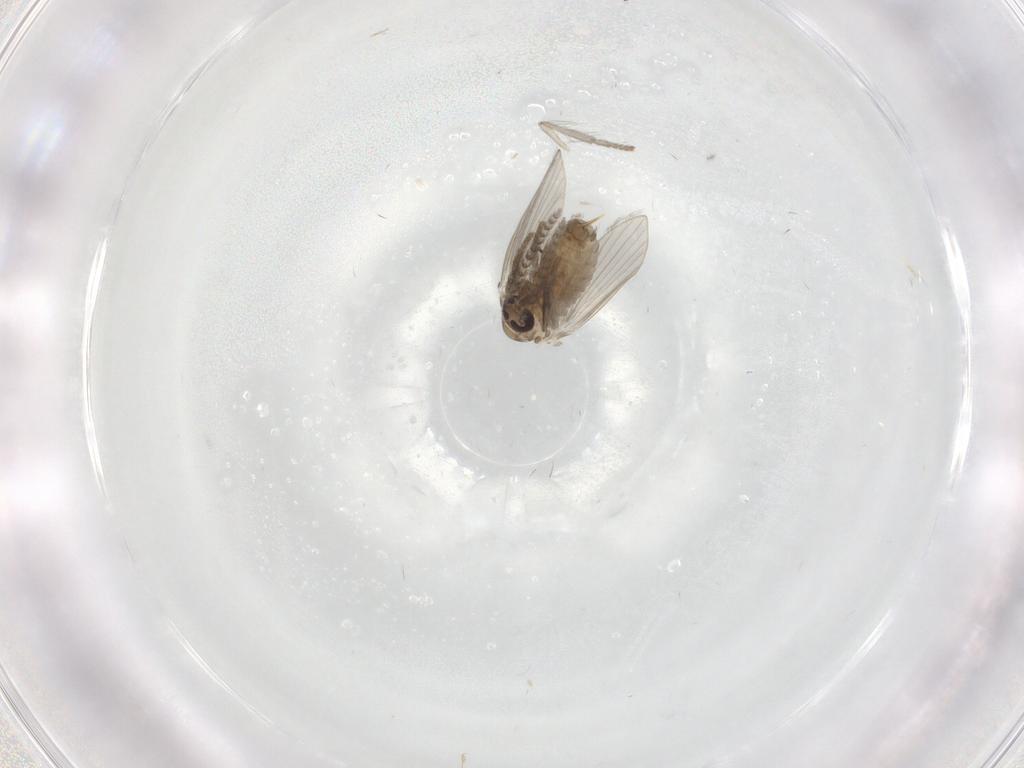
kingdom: Animalia
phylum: Arthropoda
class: Insecta
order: Diptera
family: Psychodidae
